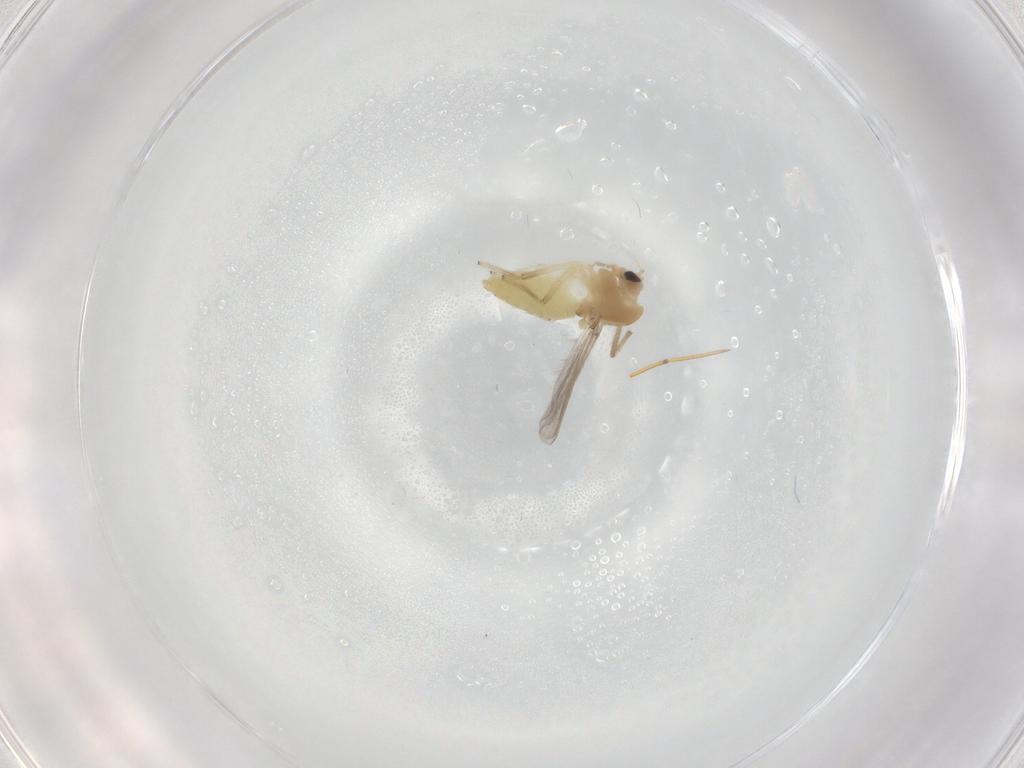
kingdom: Animalia
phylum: Arthropoda
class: Insecta
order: Diptera
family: Chironomidae
